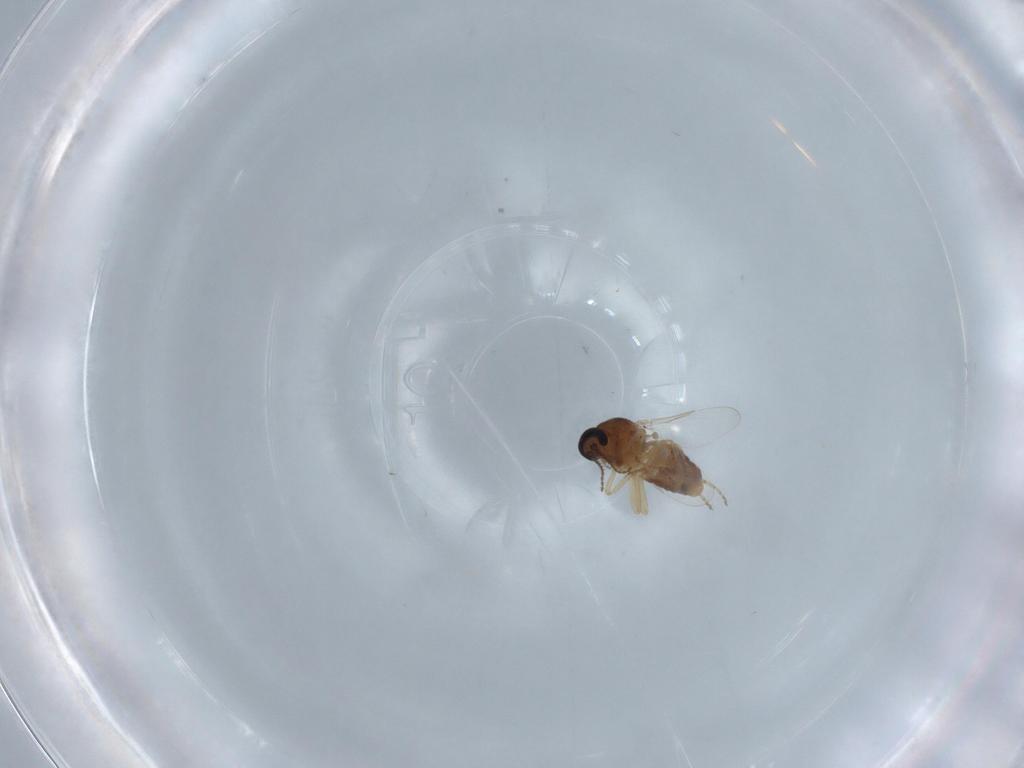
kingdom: Animalia
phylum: Arthropoda
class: Insecta
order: Diptera
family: Ceratopogonidae
